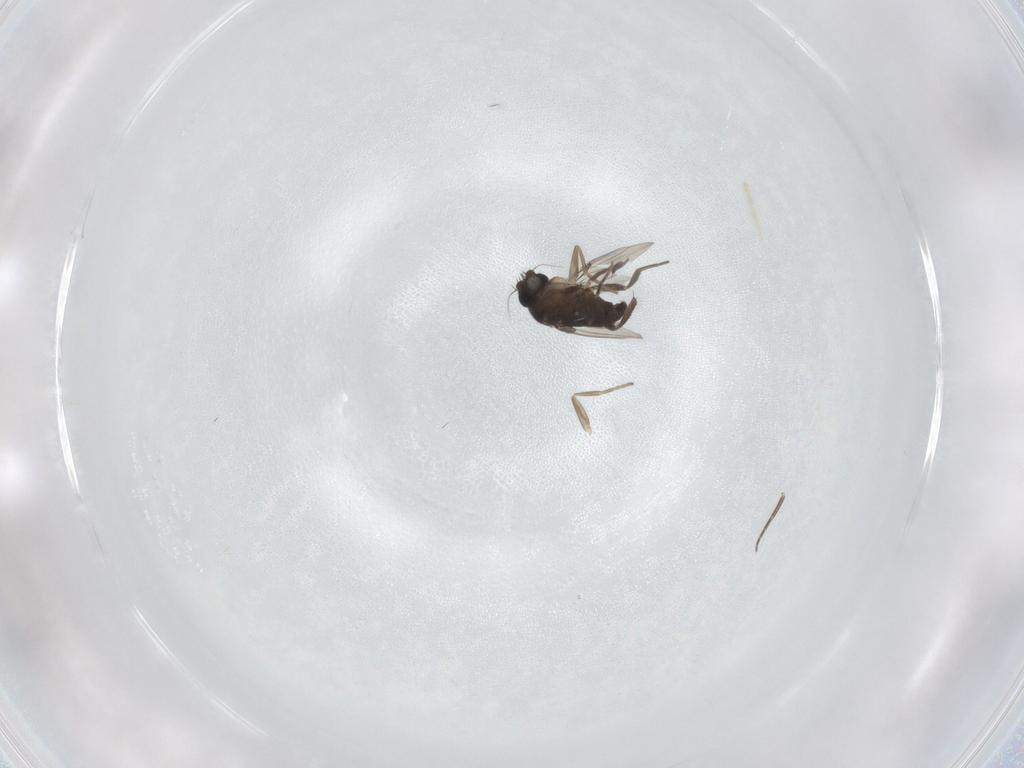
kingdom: Animalia
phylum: Arthropoda
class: Insecta
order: Diptera
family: Phoridae
